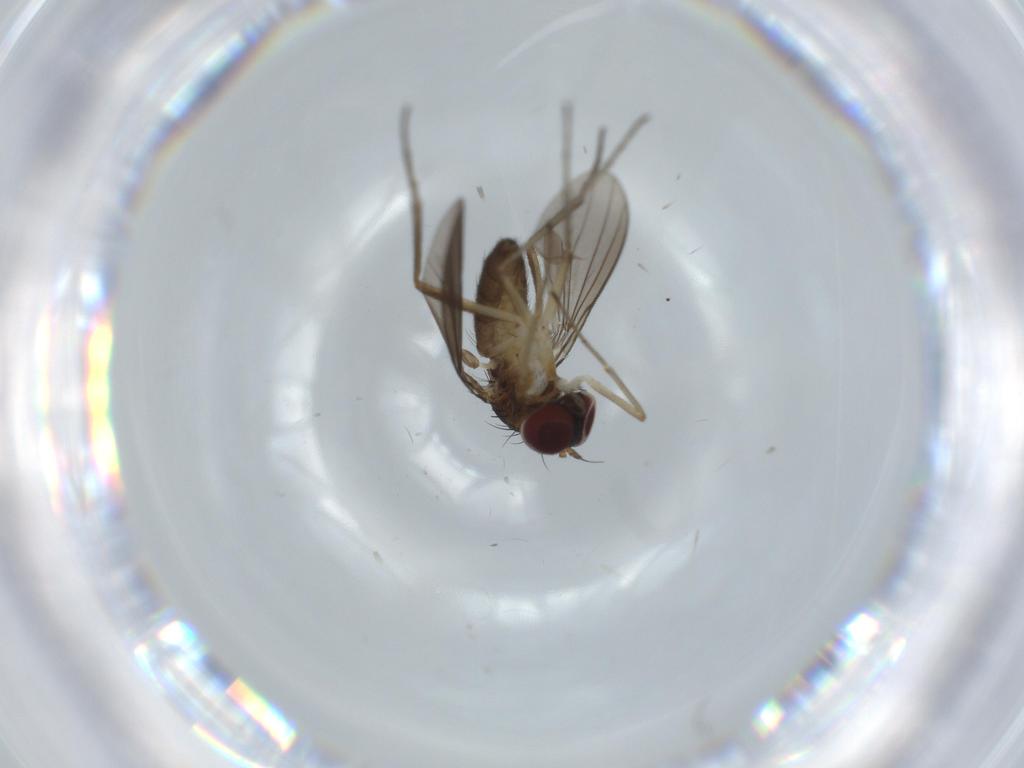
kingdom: Animalia
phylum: Arthropoda
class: Insecta
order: Diptera
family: Dolichopodidae
